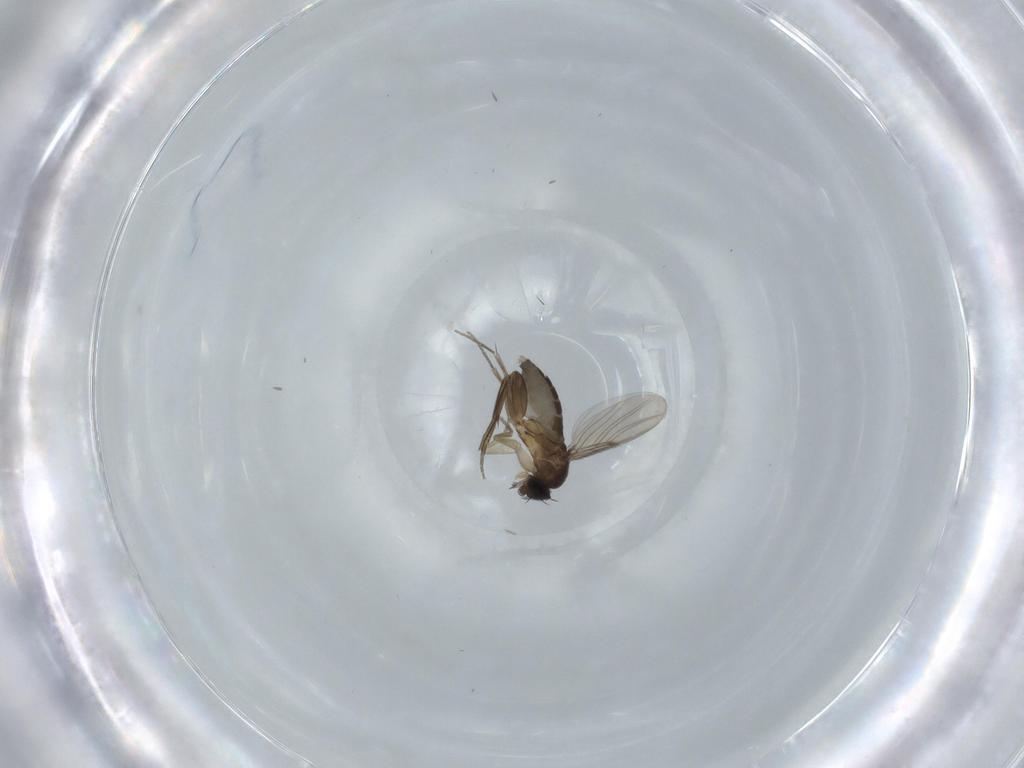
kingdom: Animalia
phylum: Arthropoda
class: Insecta
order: Diptera
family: Phoridae
